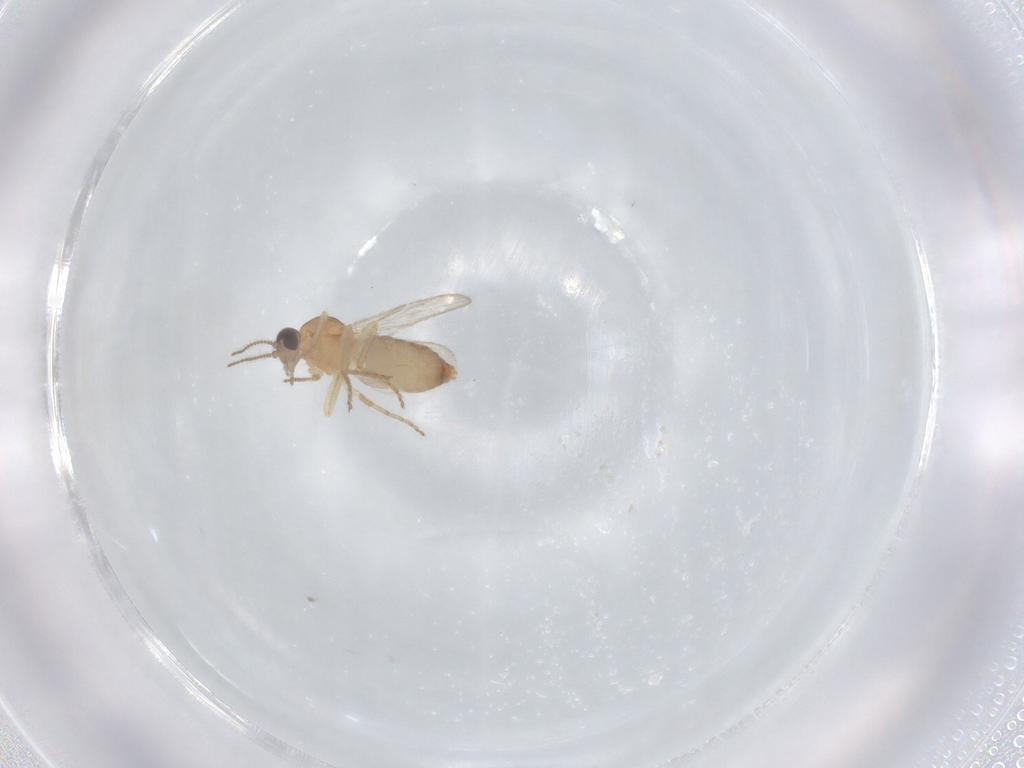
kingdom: Animalia
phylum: Arthropoda
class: Insecta
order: Diptera
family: Ceratopogonidae
